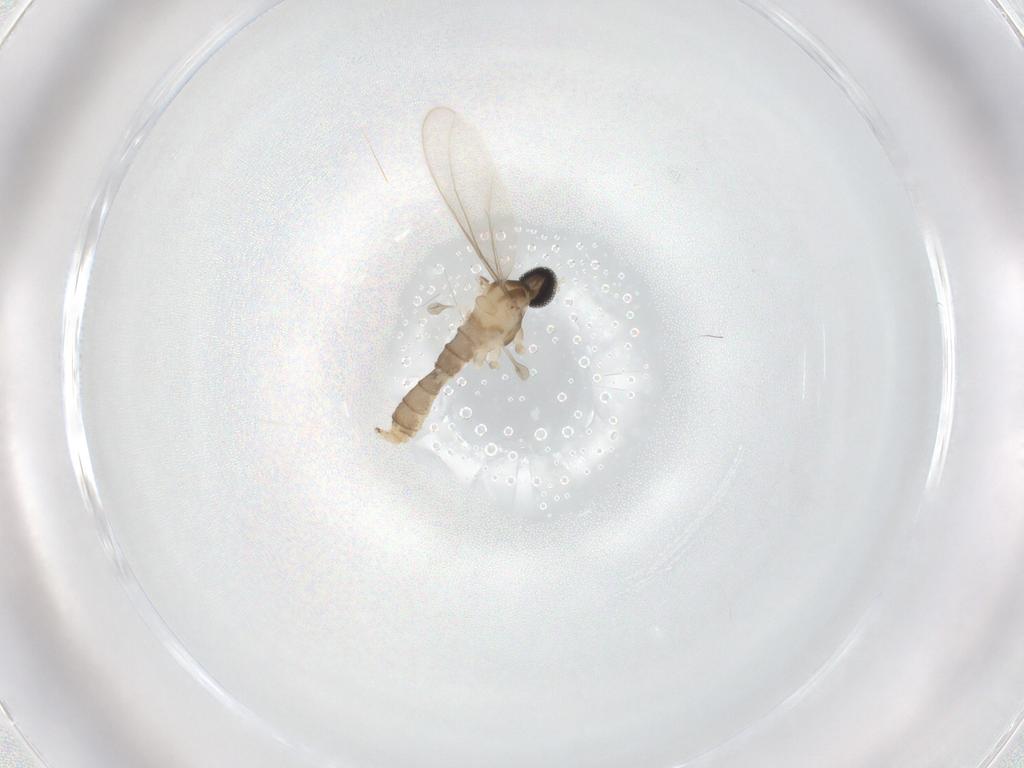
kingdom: Animalia
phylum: Arthropoda
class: Insecta
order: Diptera
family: Cecidomyiidae
